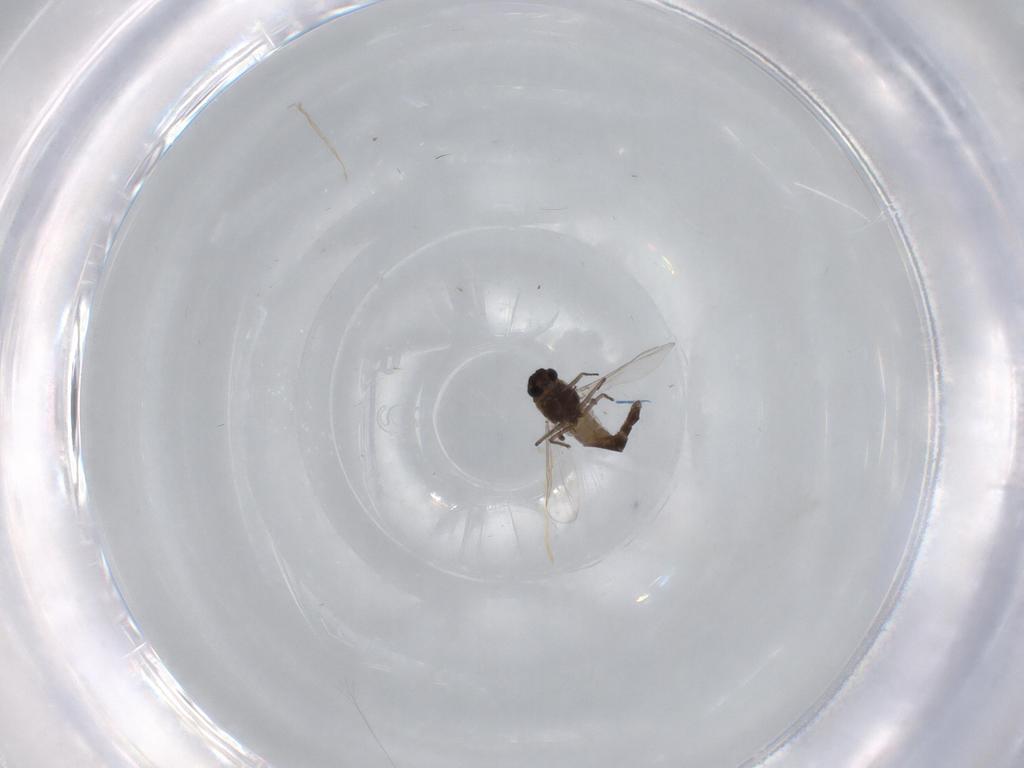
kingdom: Animalia
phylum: Arthropoda
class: Insecta
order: Diptera
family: Chironomidae
